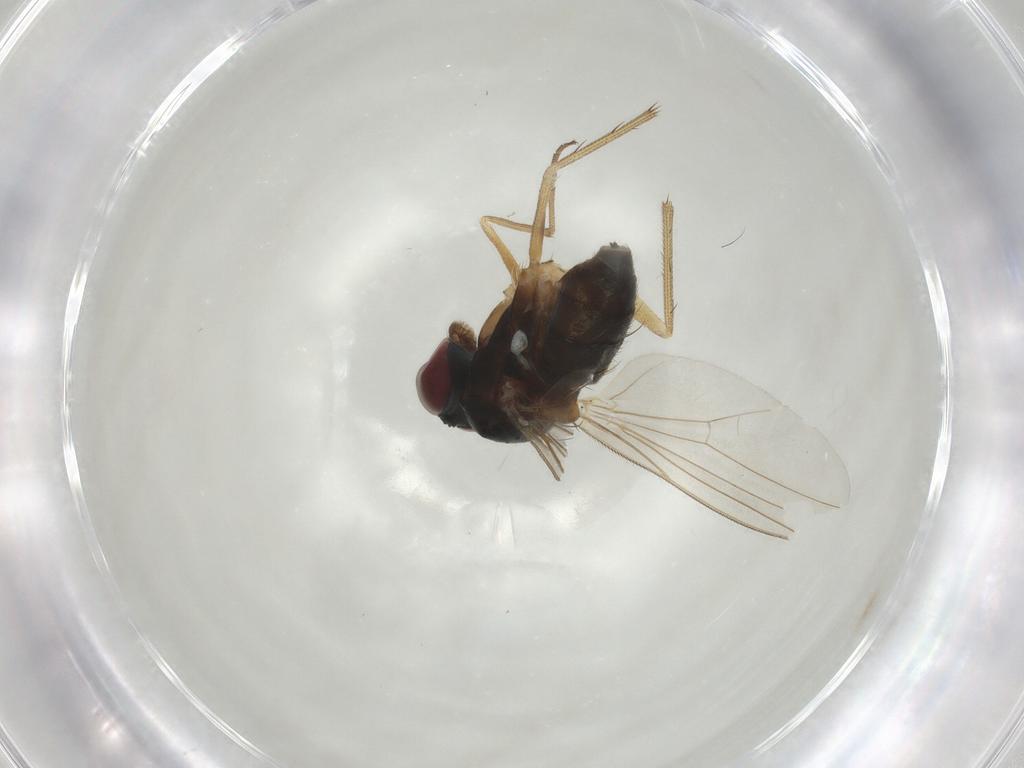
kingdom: Animalia
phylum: Arthropoda
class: Insecta
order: Diptera
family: Dolichopodidae
